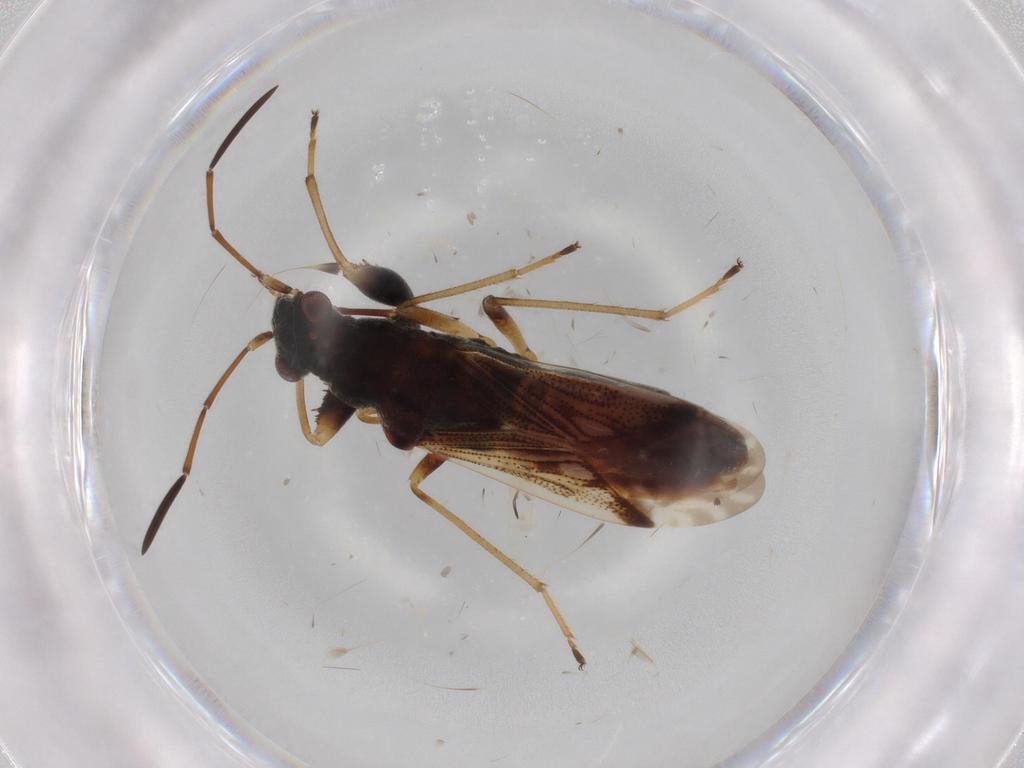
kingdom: Animalia
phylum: Arthropoda
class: Insecta
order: Hemiptera
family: Rhyparochromidae
